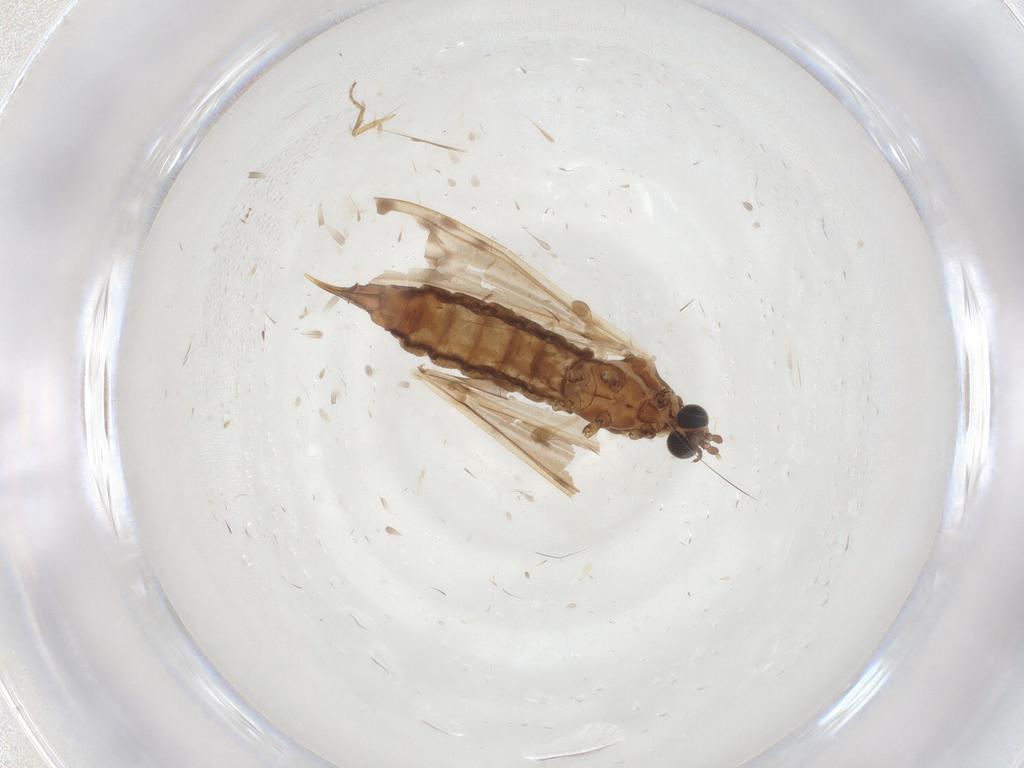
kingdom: Animalia
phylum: Arthropoda
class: Insecta
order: Diptera
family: Limoniidae
